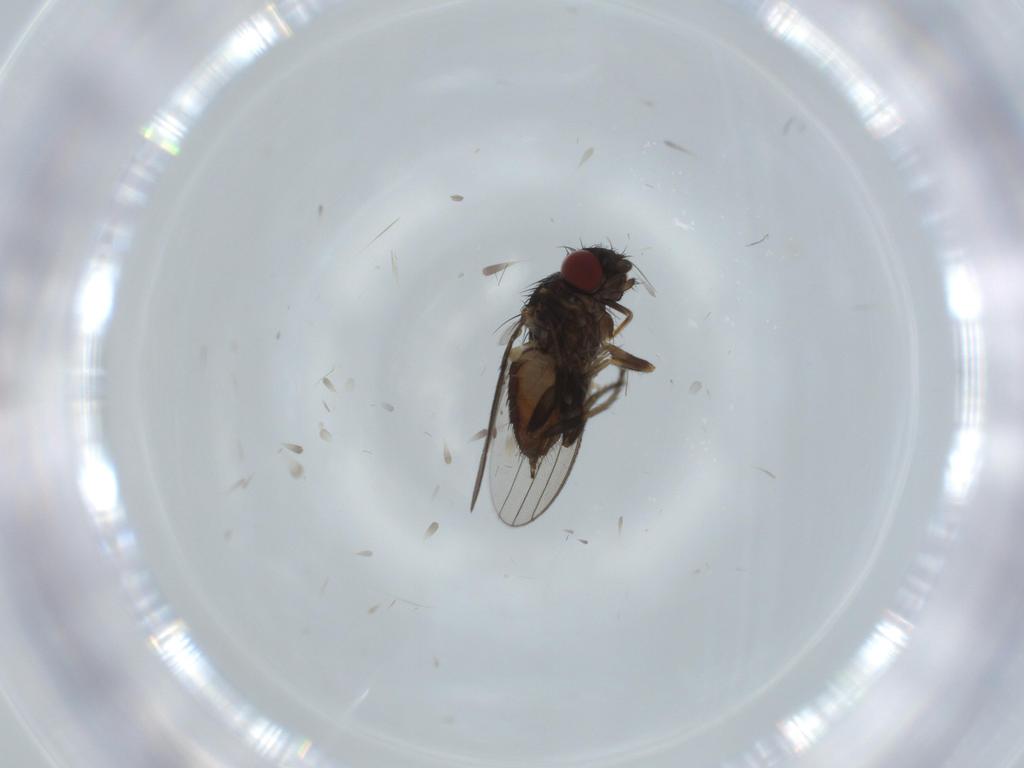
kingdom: Animalia
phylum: Arthropoda
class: Insecta
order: Diptera
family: Milichiidae
